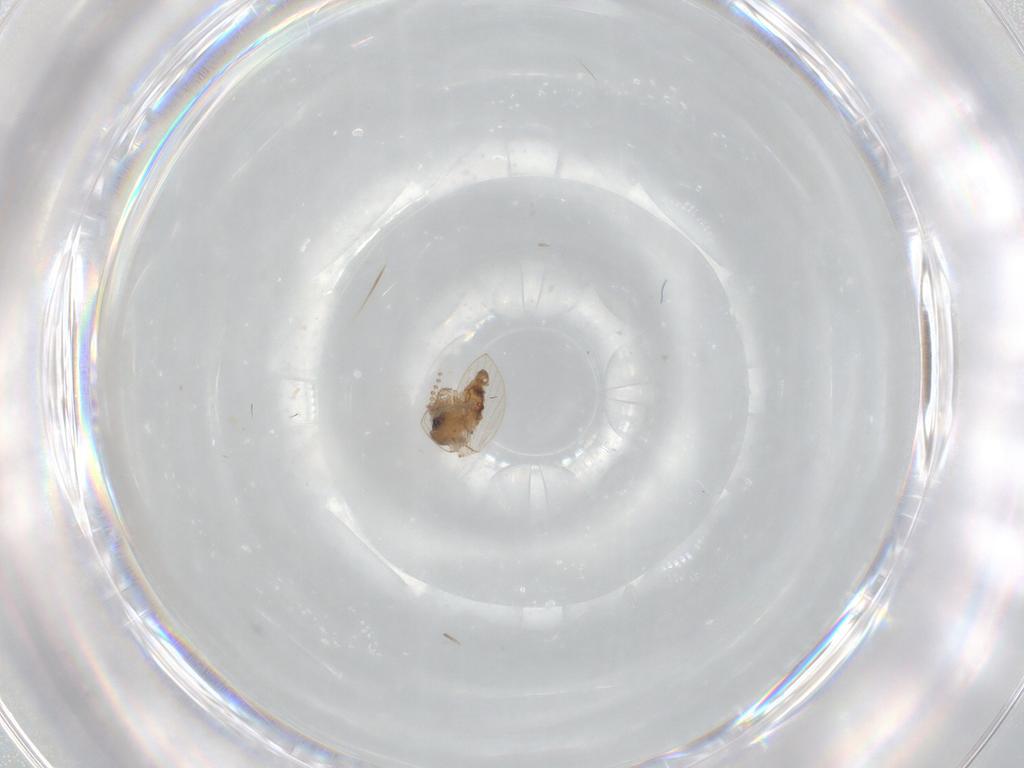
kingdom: Animalia
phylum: Arthropoda
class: Insecta
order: Diptera
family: Psychodidae
